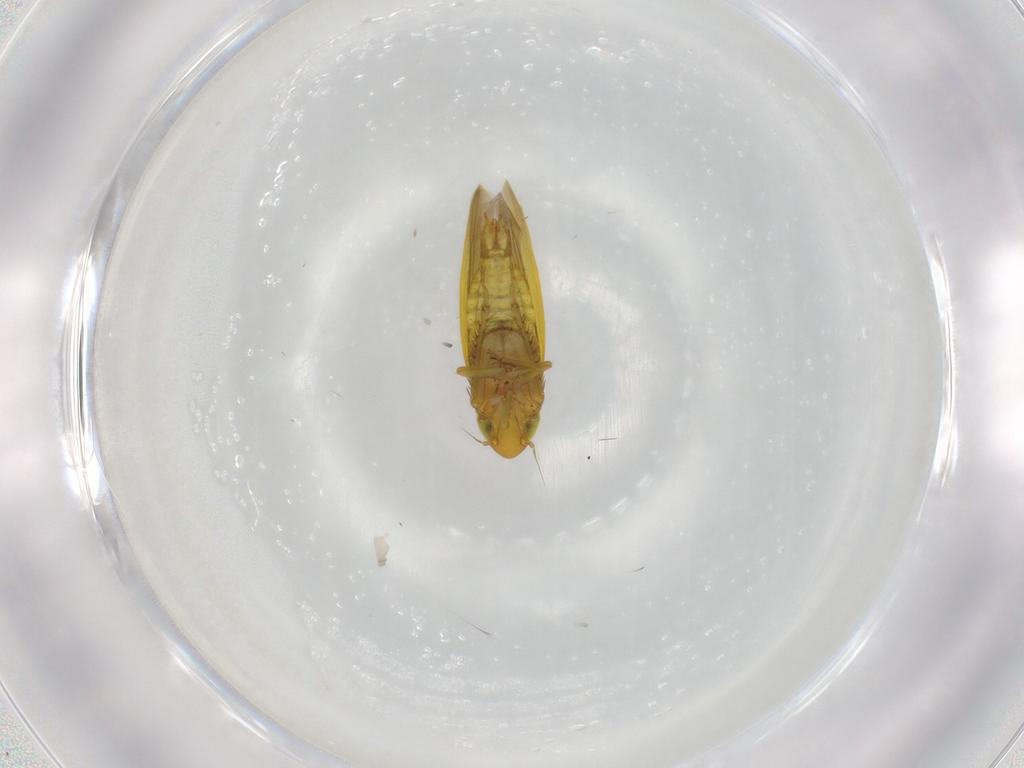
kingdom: Animalia
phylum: Arthropoda
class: Insecta
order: Hemiptera
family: Cicadellidae
